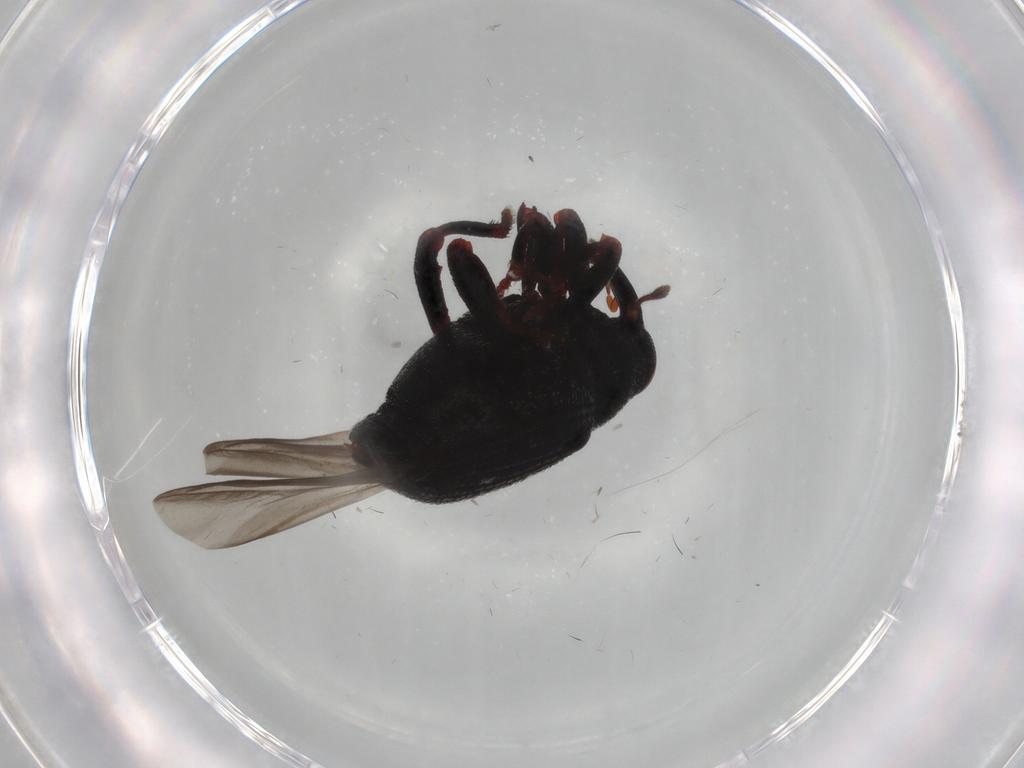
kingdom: Animalia
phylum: Arthropoda
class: Insecta
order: Coleoptera
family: Curculionidae
